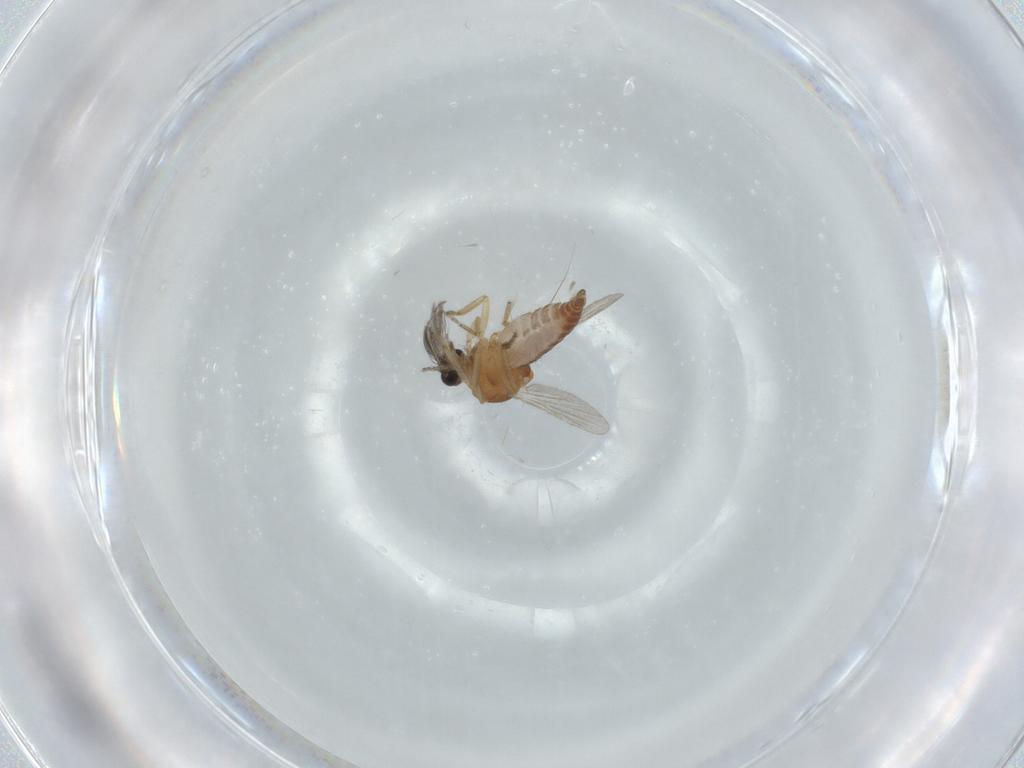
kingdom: Animalia
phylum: Arthropoda
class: Insecta
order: Diptera
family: Ceratopogonidae
